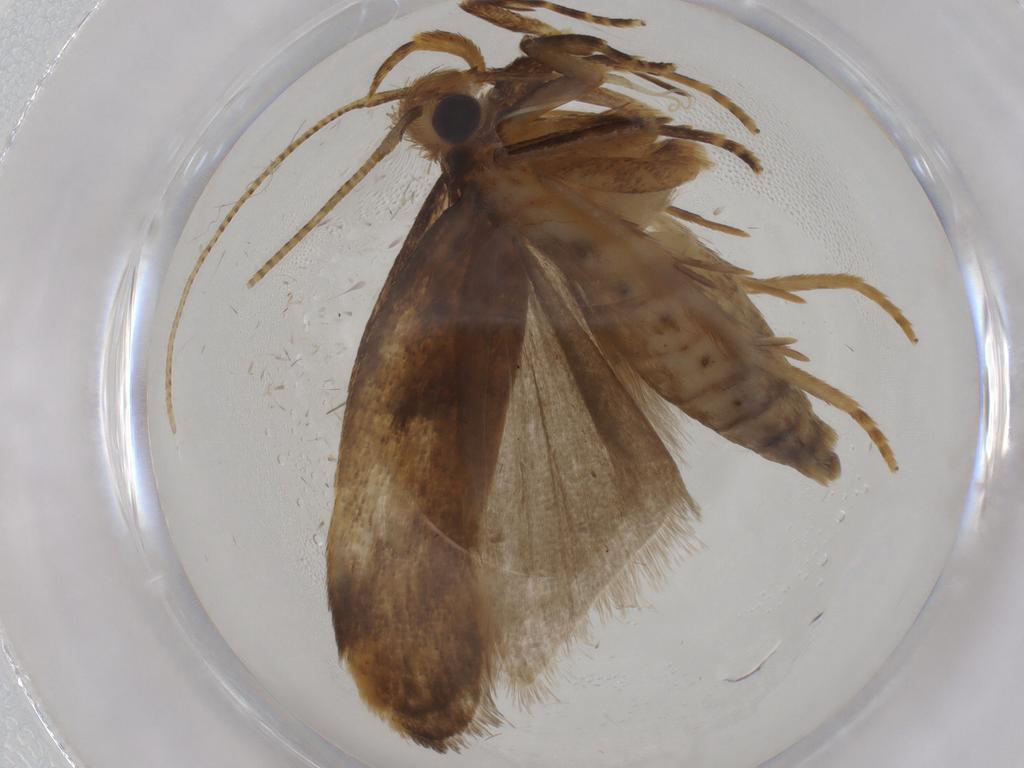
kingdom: Animalia
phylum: Arthropoda
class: Insecta
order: Lepidoptera
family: Autostichidae
